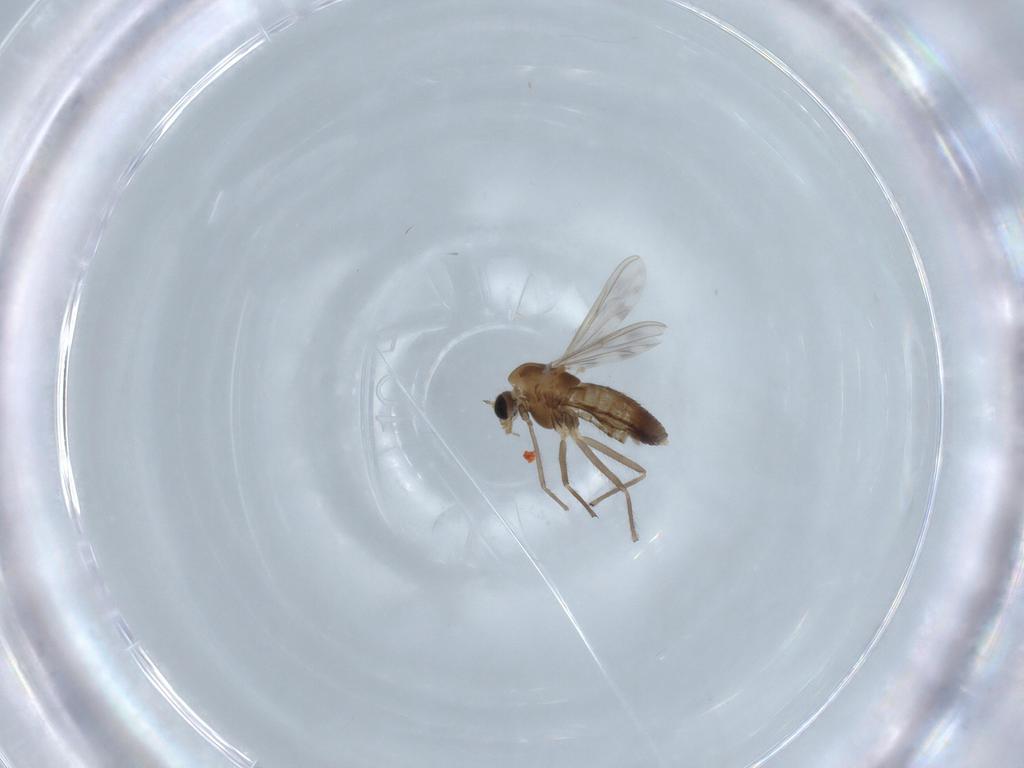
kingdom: Animalia
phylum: Arthropoda
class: Insecta
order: Diptera
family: Chironomidae
